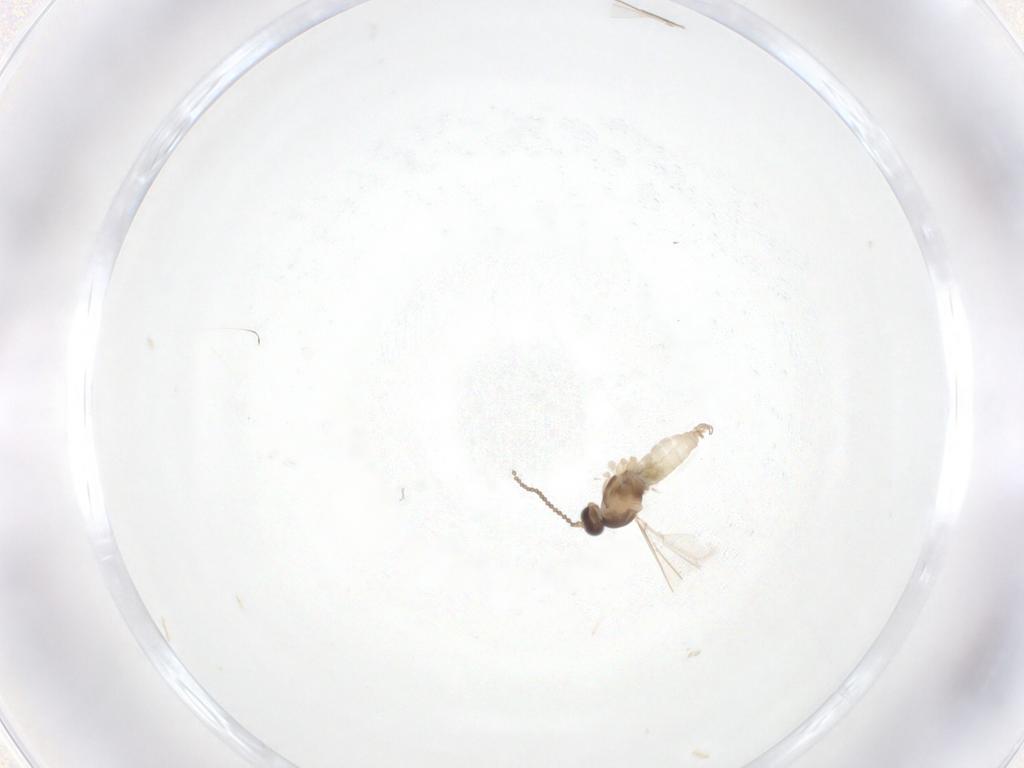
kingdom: Animalia
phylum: Arthropoda
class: Insecta
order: Diptera
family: Cecidomyiidae
